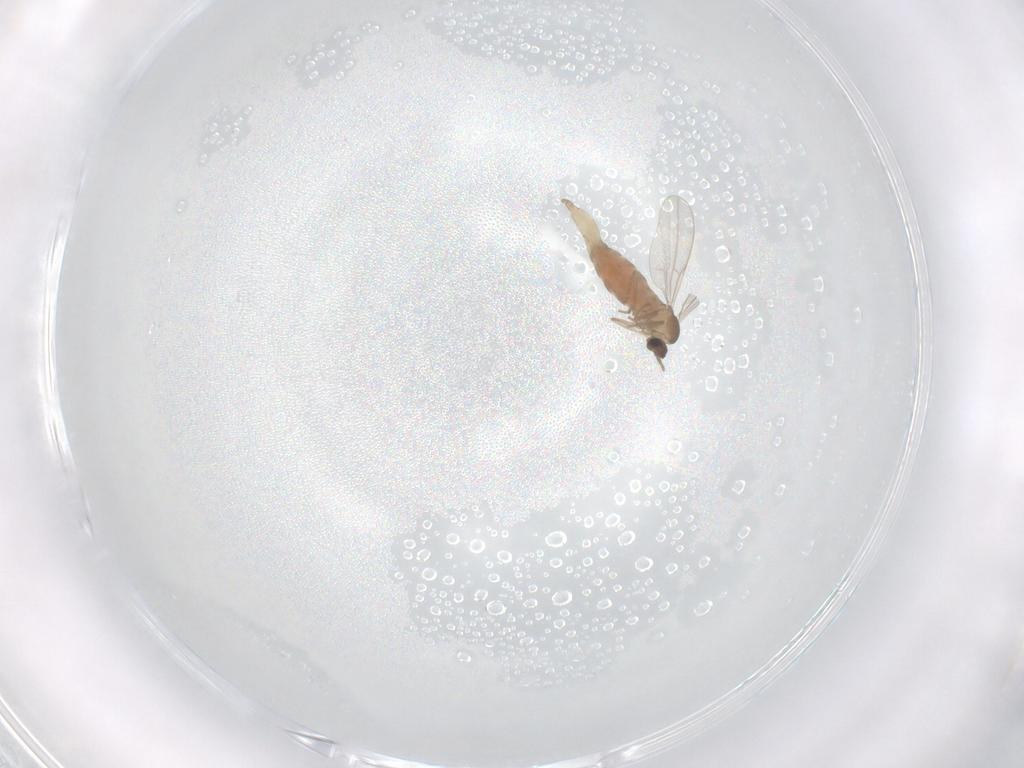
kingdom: Animalia
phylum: Arthropoda
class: Insecta
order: Diptera
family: Cecidomyiidae
